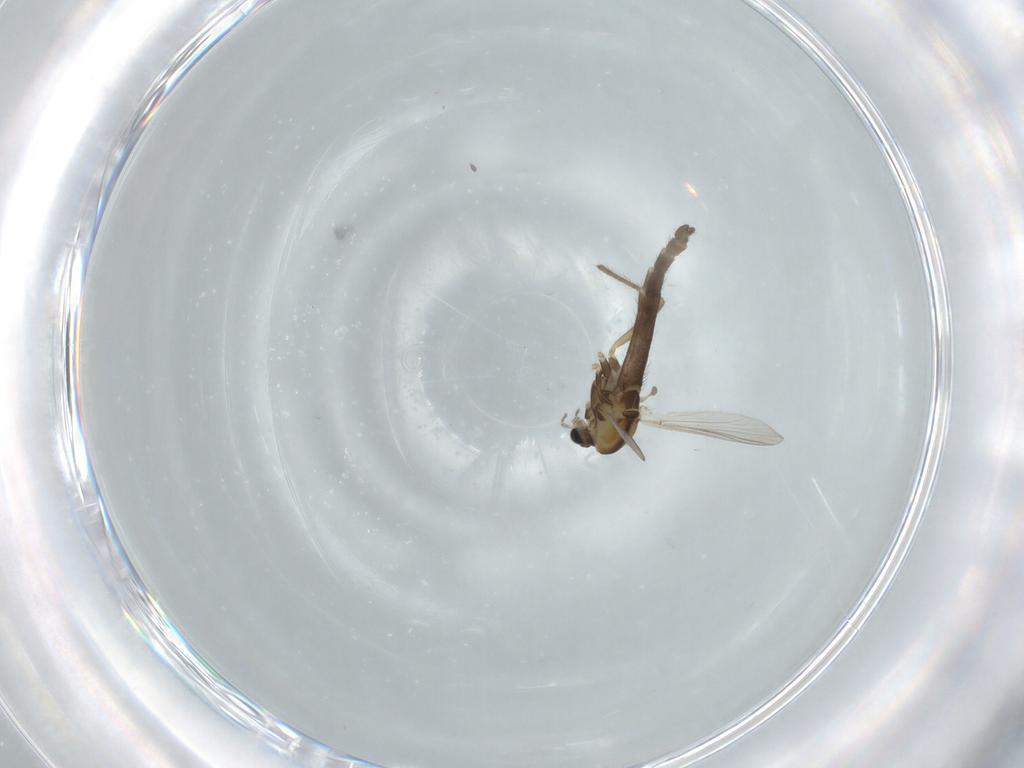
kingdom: Animalia
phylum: Arthropoda
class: Insecta
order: Diptera
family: Chironomidae
